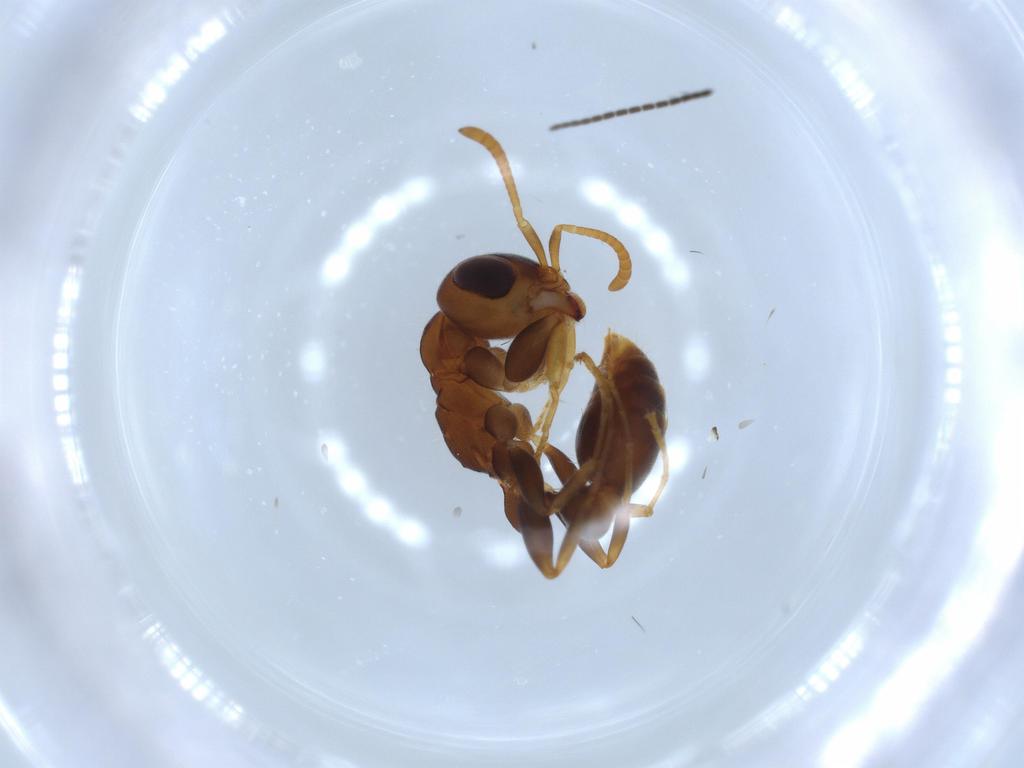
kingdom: Animalia
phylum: Arthropoda
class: Insecta
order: Hymenoptera
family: Formicidae
